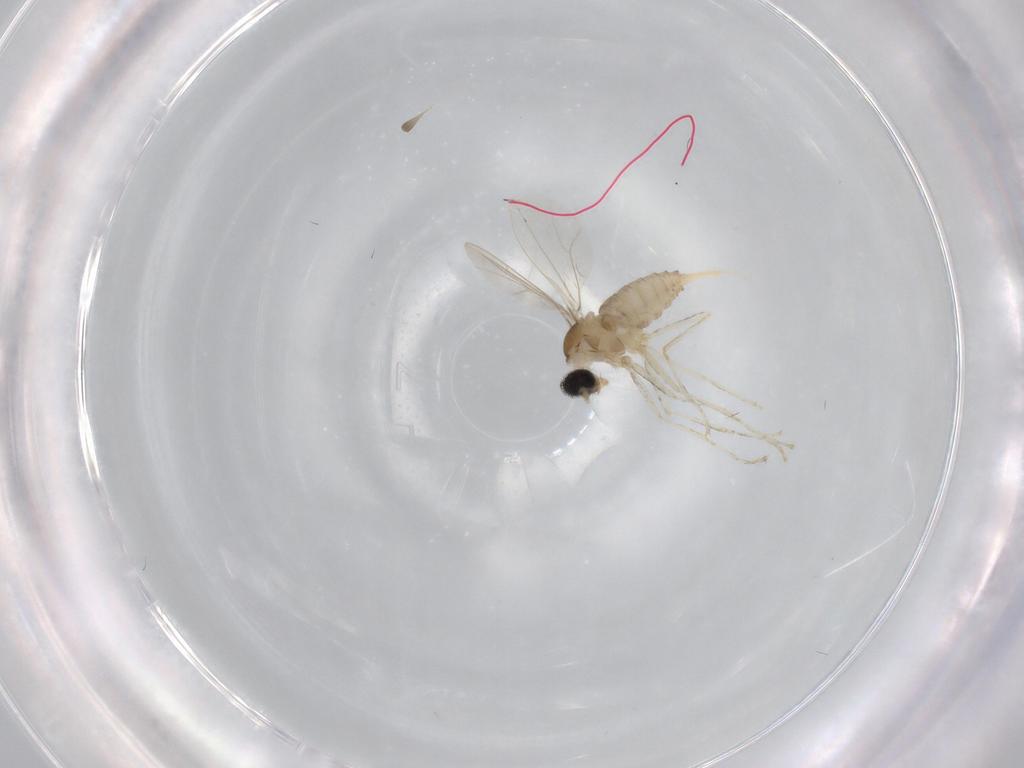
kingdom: Animalia
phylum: Arthropoda
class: Insecta
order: Diptera
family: Cecidomyiidae
